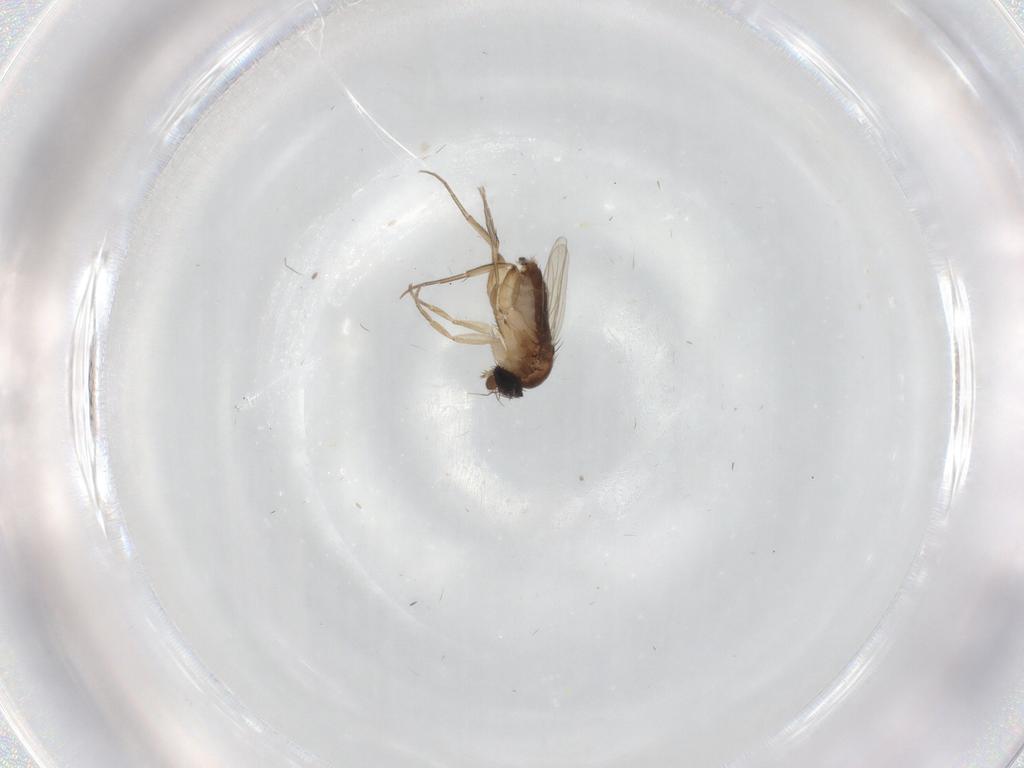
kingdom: Animalia
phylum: Arthropoda
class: Insecta
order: Diptera
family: Phoridae
